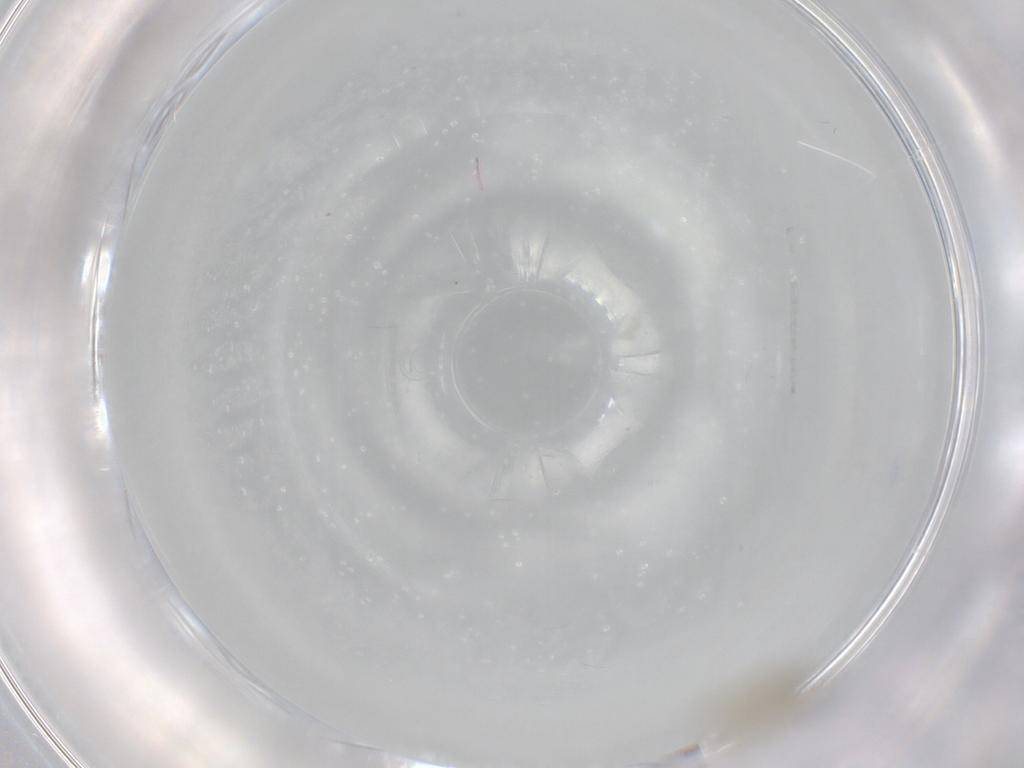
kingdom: Animalia
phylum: Arthropoda
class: Insecta
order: Diptera
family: Cecidomyiidae
